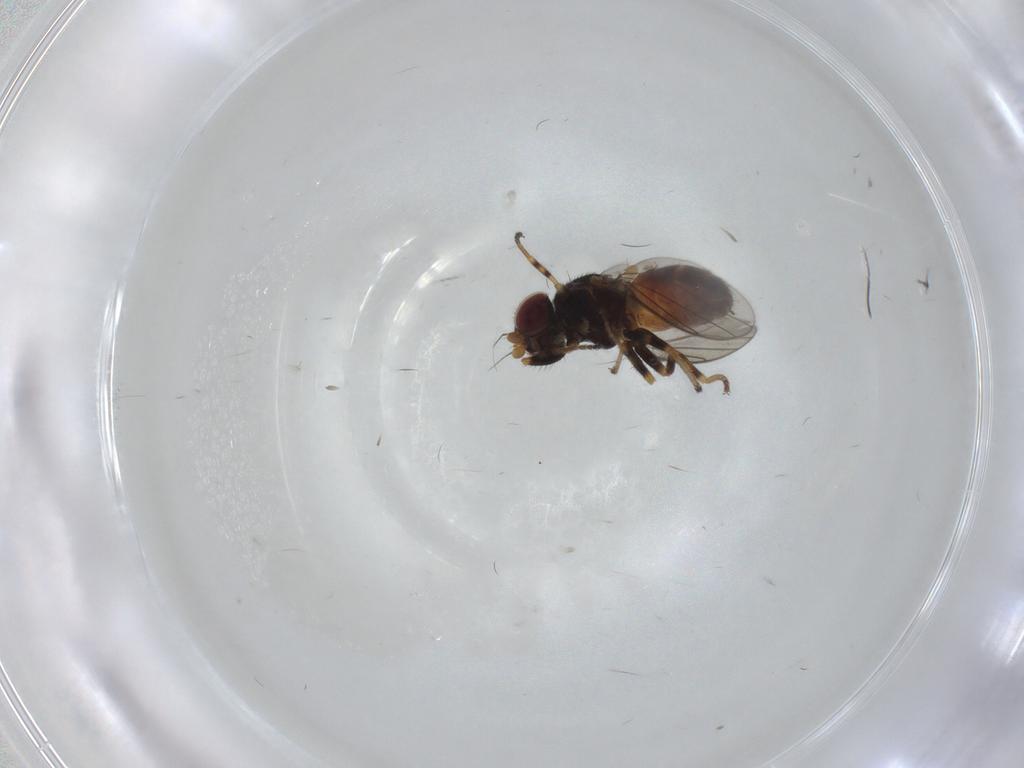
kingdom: Animalia
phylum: Arthropoda
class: Insecta
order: Diptera
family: Chloropidae
